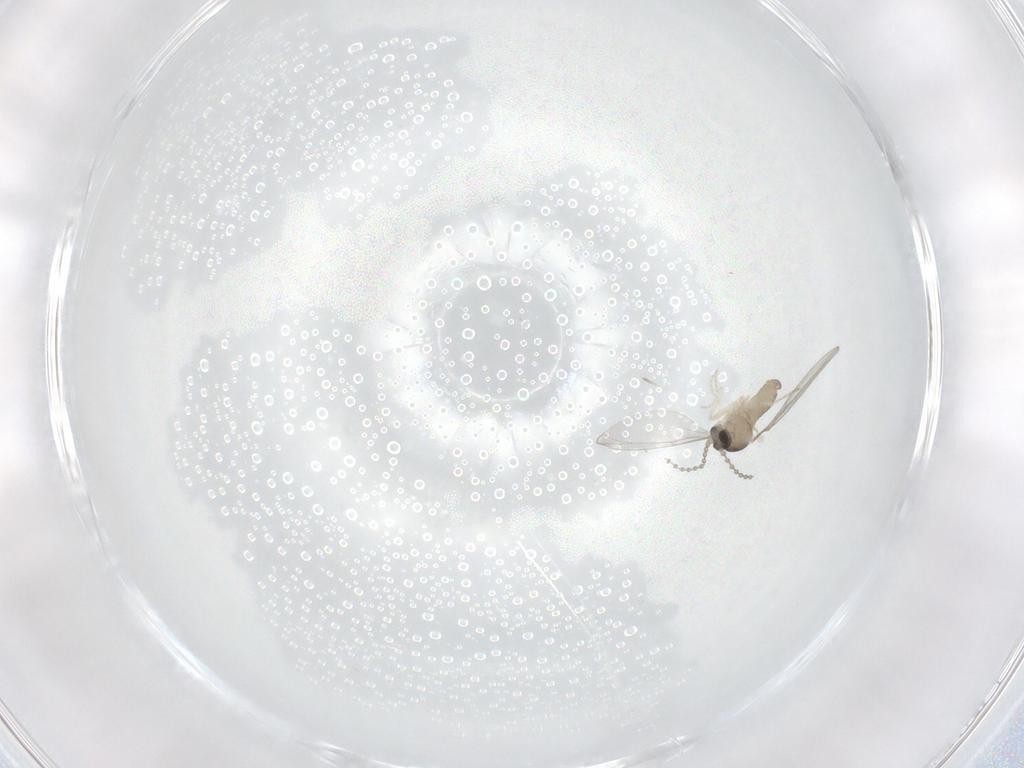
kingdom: Animalia
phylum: Arthropoda
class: Insecta
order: Diptera
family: Cecidomyiidae
